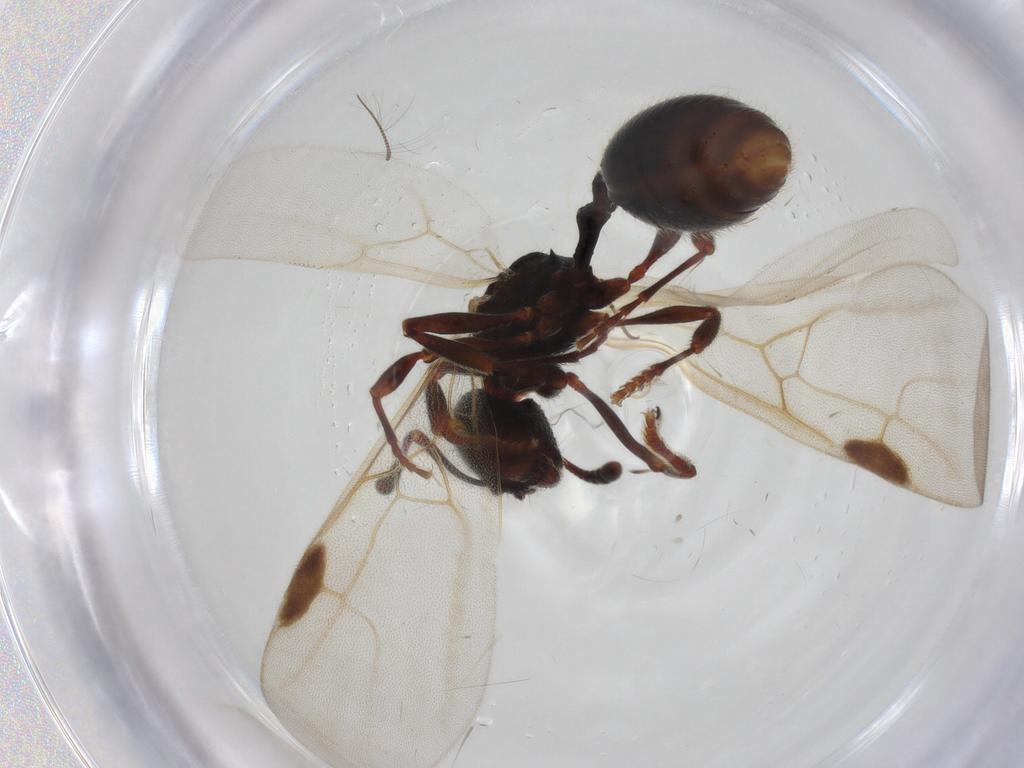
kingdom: Animalia
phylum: Arthropoda
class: Insecta
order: Hymenoptera
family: Formicidae
